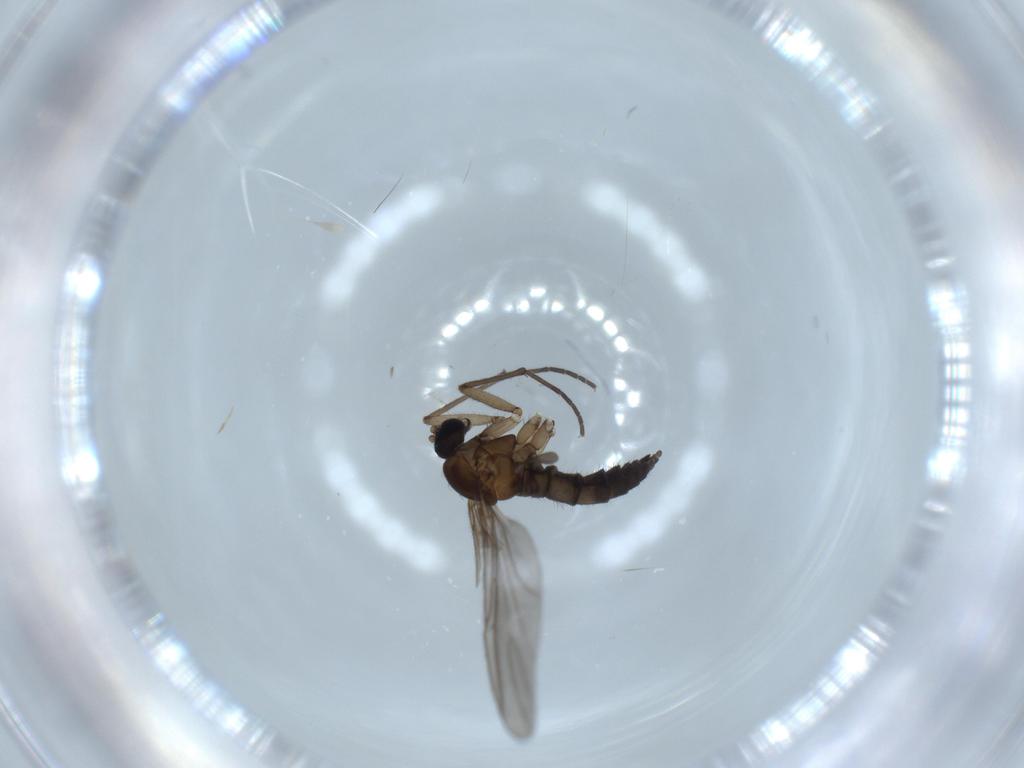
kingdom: Animalia
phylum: Arthropoda
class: Insecta
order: Diptera
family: Sciaridae
